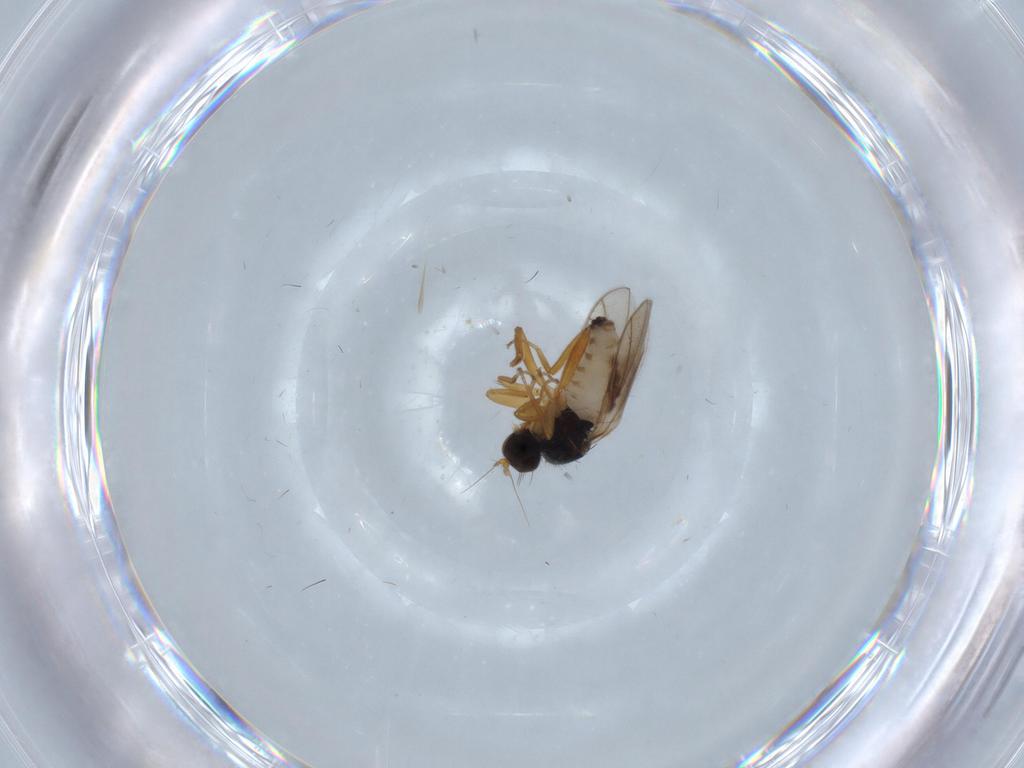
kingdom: Animalia
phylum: Arthropoda
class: Insecta
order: Diptera
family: Hybotidae
